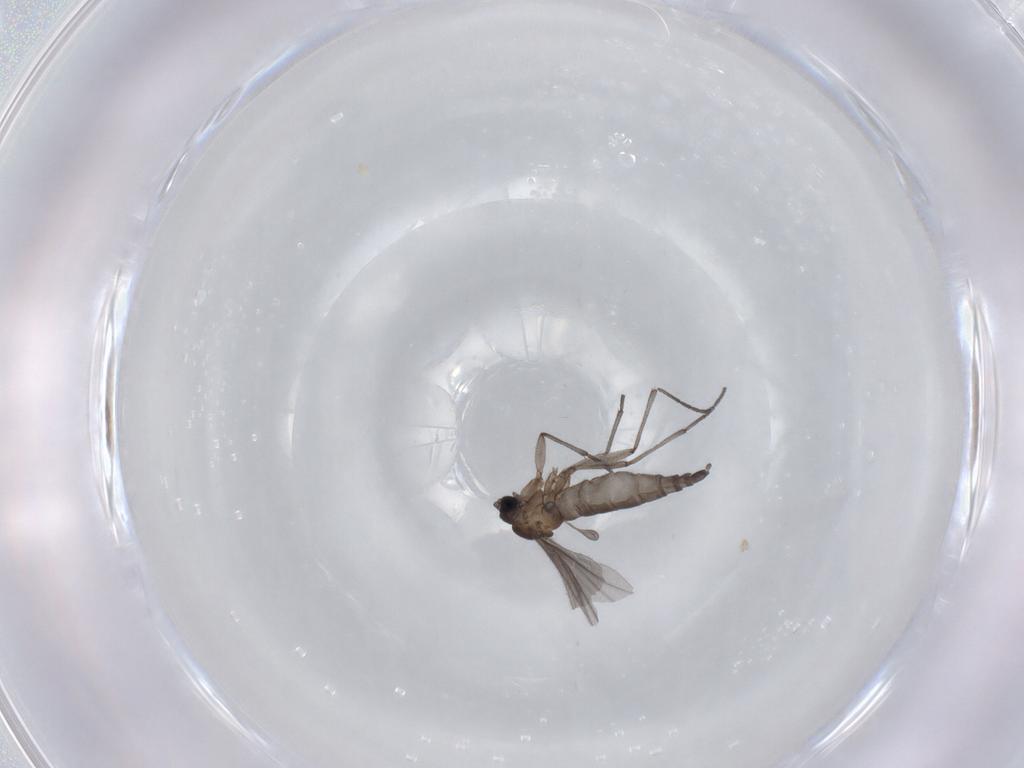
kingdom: Animalia
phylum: Arthropoda
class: Insecta
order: Diptera
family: Sciaridae
